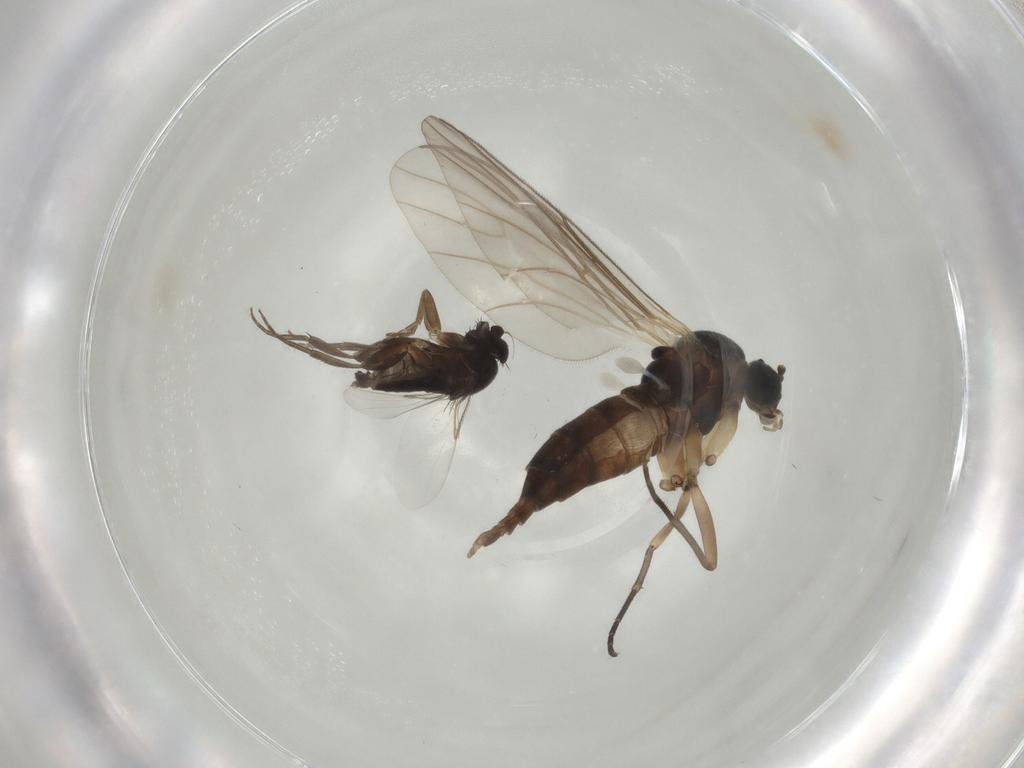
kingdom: Animalia
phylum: Arthropoda
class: Insecta
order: Diptera
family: Sciaridae
